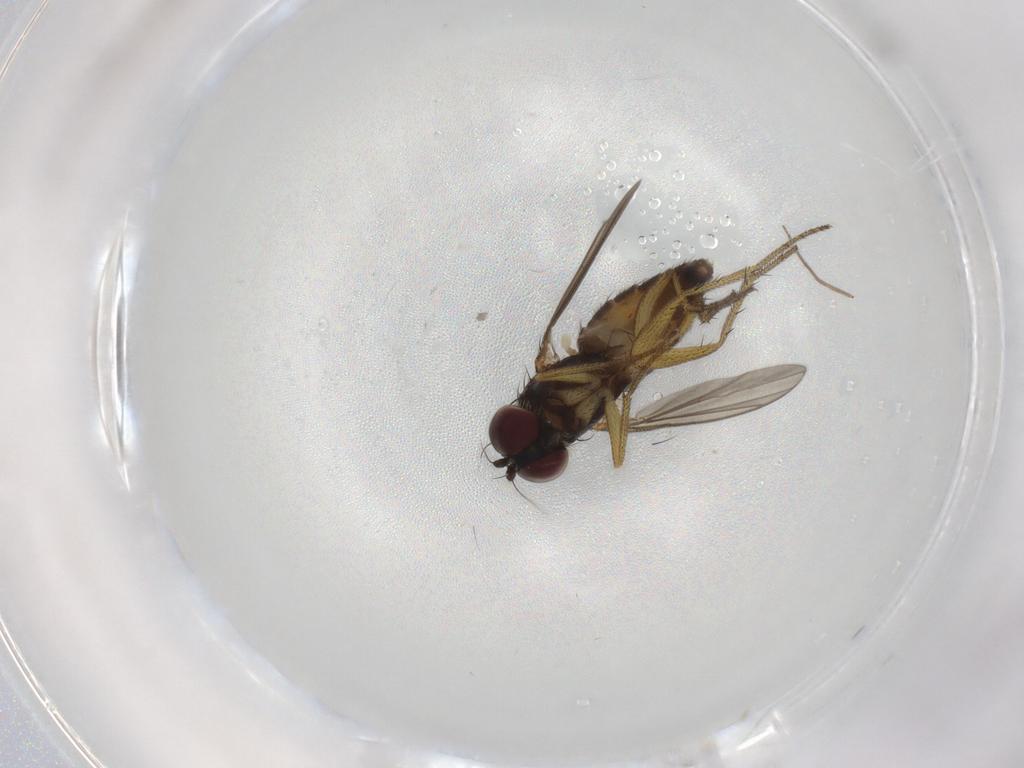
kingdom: Animalia
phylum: Arthropoda
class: Insecta
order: Diptera
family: Dolichopodidae
